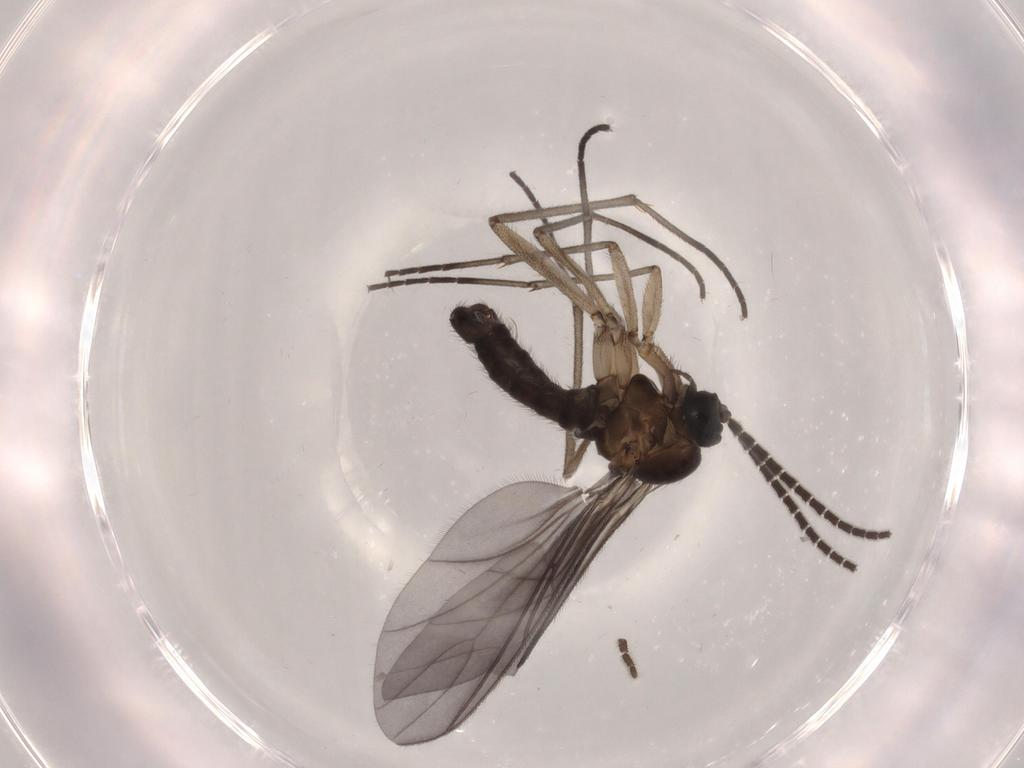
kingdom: Animalia
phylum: Arthropoda
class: Insecta
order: Diptera
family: Sciaridae
